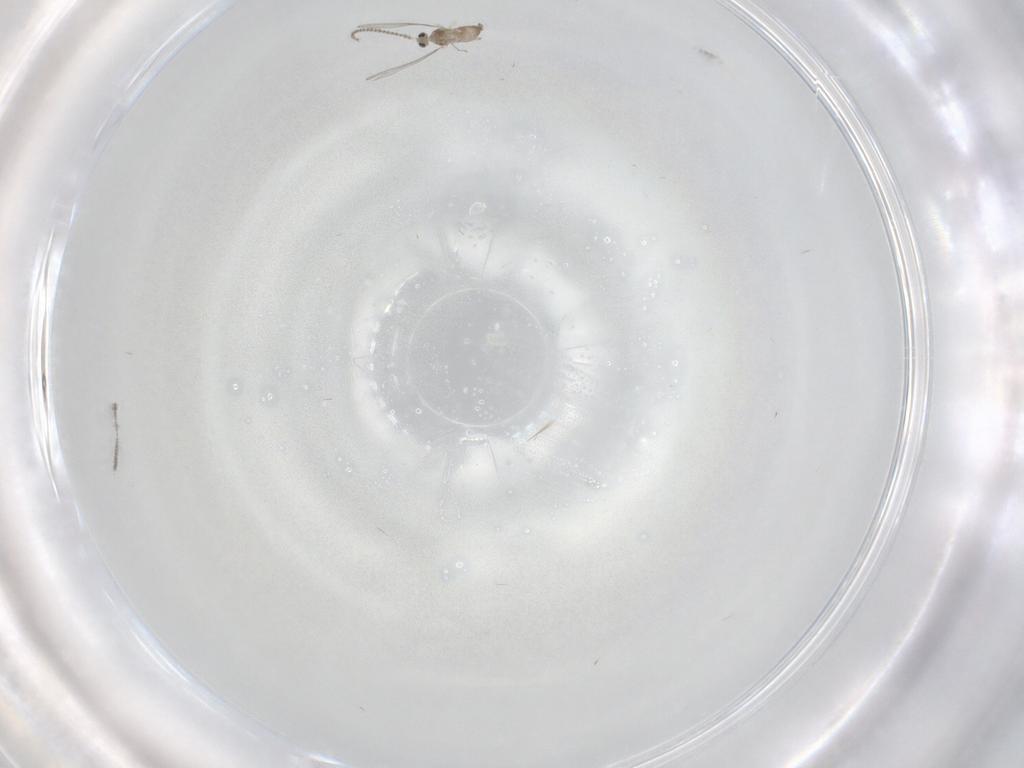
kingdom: Animalia
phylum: Arthropoda
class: Insecta
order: Diptera
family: Cecidomyiidae
